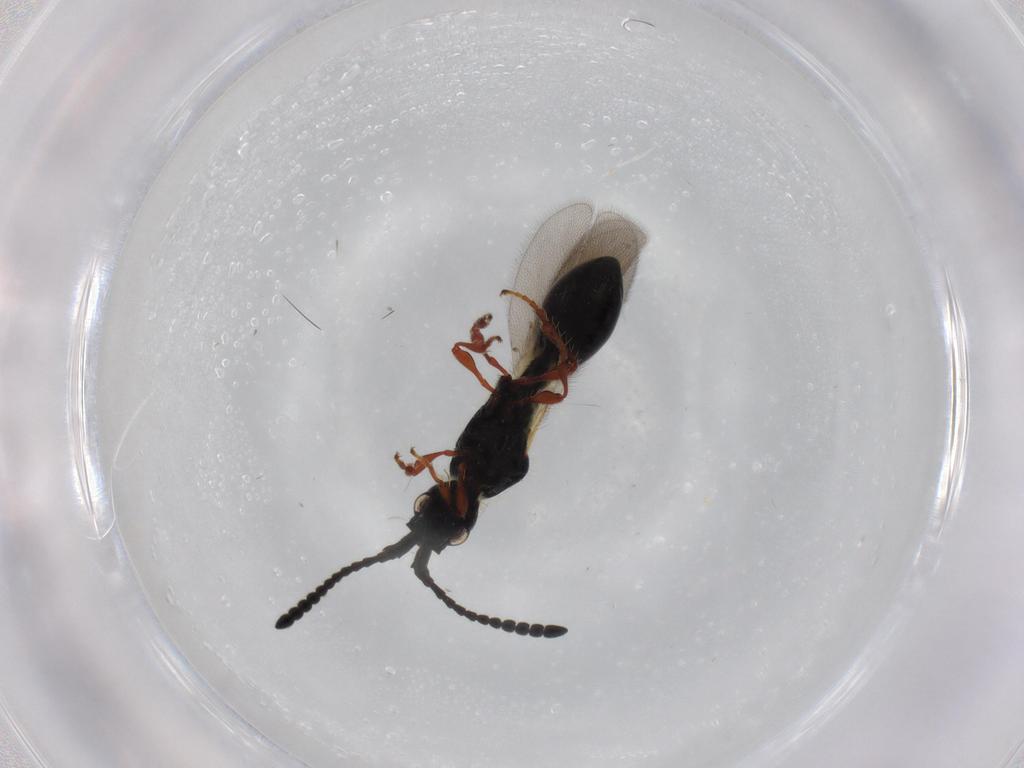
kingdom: Animalia
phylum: Arthropoda
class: Insecta
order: Hymenoptera
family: Diapriidae
